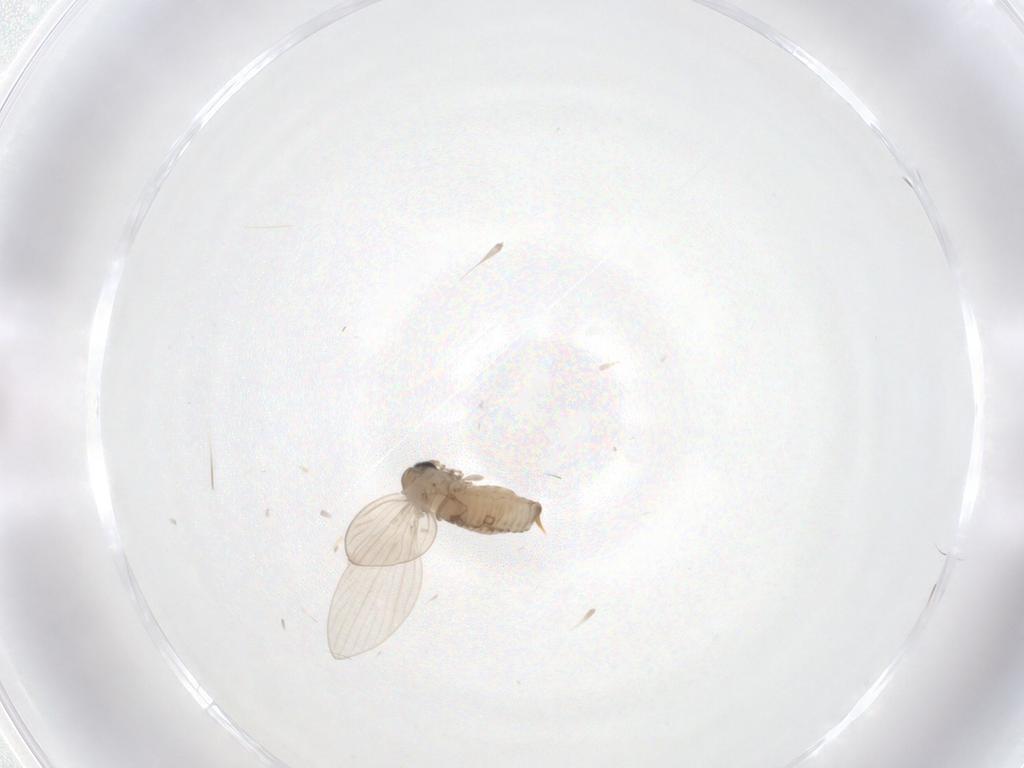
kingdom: Animalia
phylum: Arthropoda
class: Insecta
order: Diptera
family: Psychodidae
